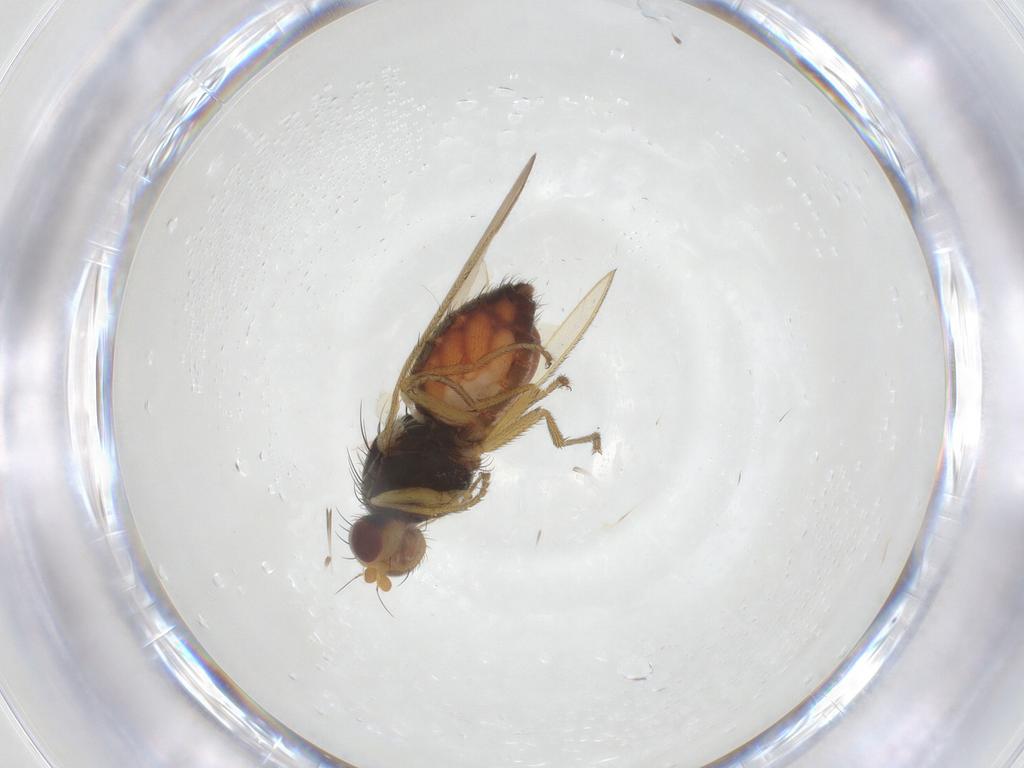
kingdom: Animalia
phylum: Arthropoda
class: Insecta
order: Diptera
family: Heleomyzidae
